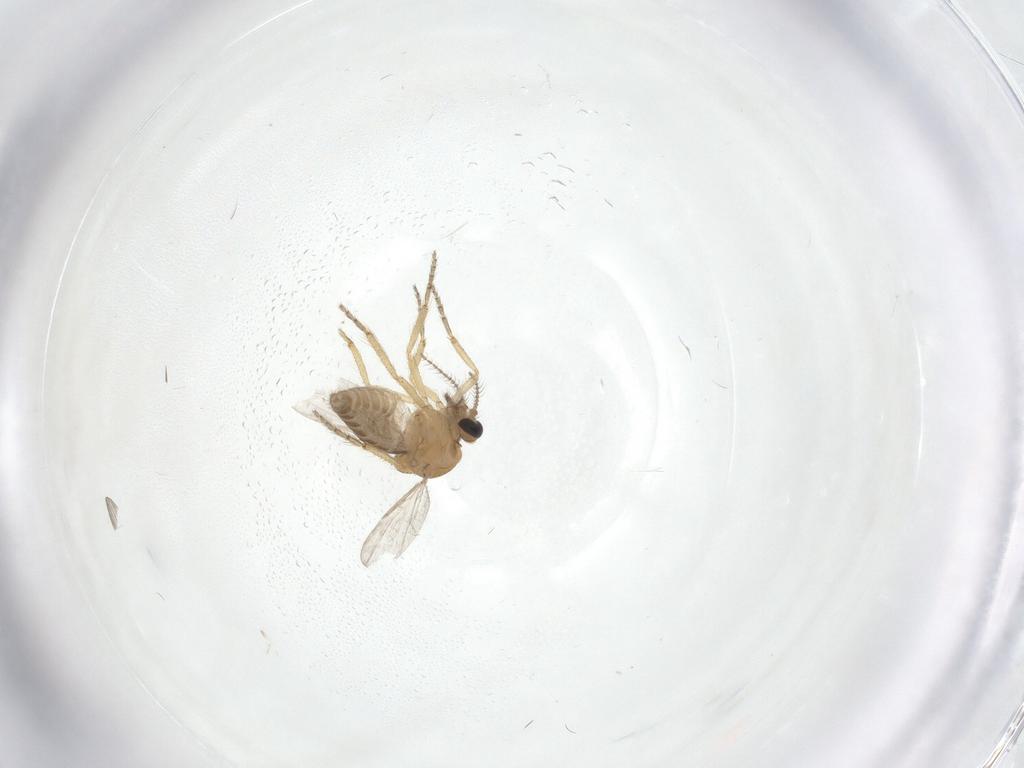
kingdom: Animalia
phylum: Arthropoda
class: Insecta
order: Diptera
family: Ceratopogonidae
